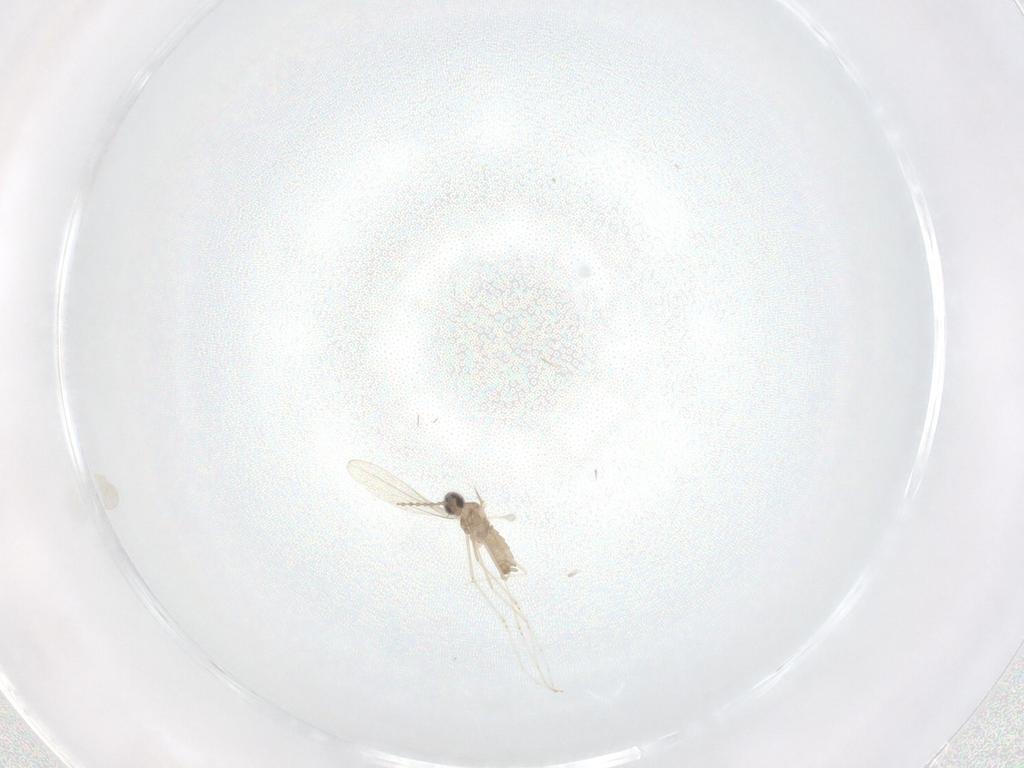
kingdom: Animalia
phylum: Arthropoda
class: Insecta
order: Diptera
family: Cecidomyiidae
